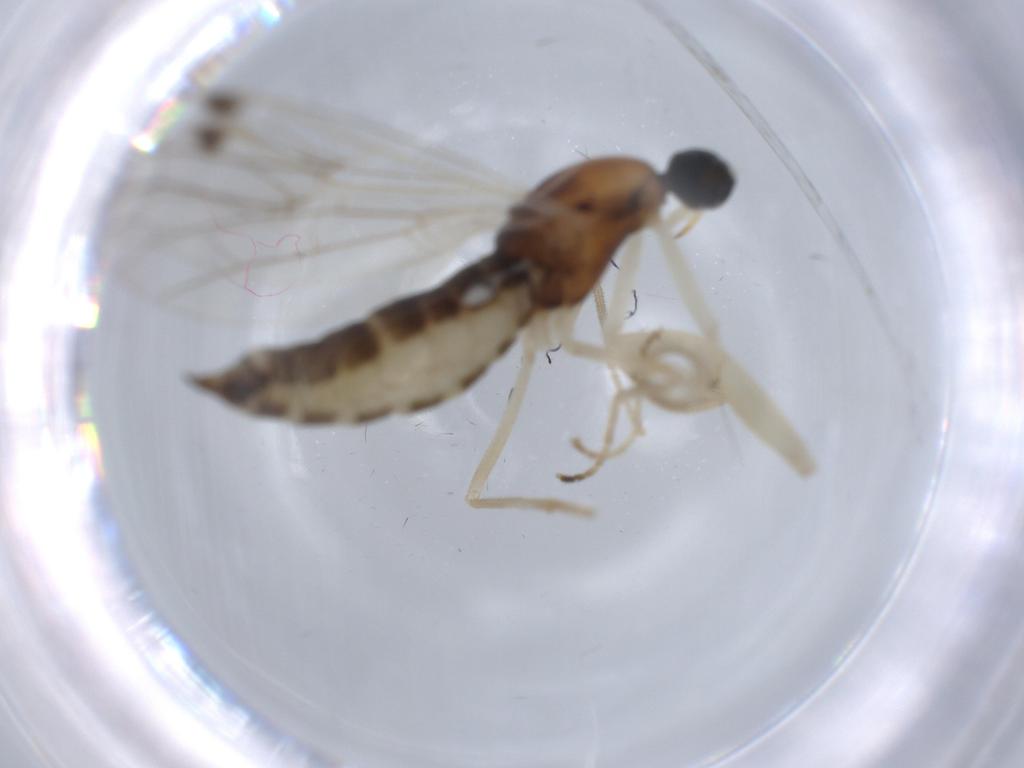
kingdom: Animalia
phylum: Arthropoda
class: Insecta
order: Diptera
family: Empididae
